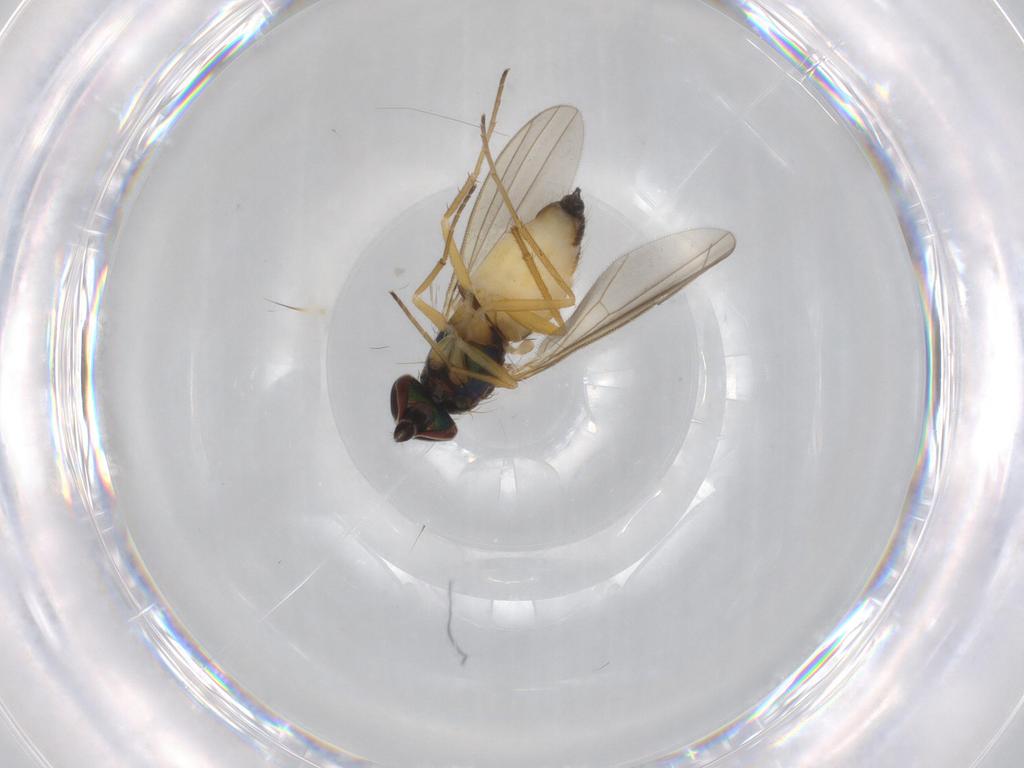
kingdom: Animalia
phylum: Arthropoda
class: Insecta
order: Diptera
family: Dolichopodidae
